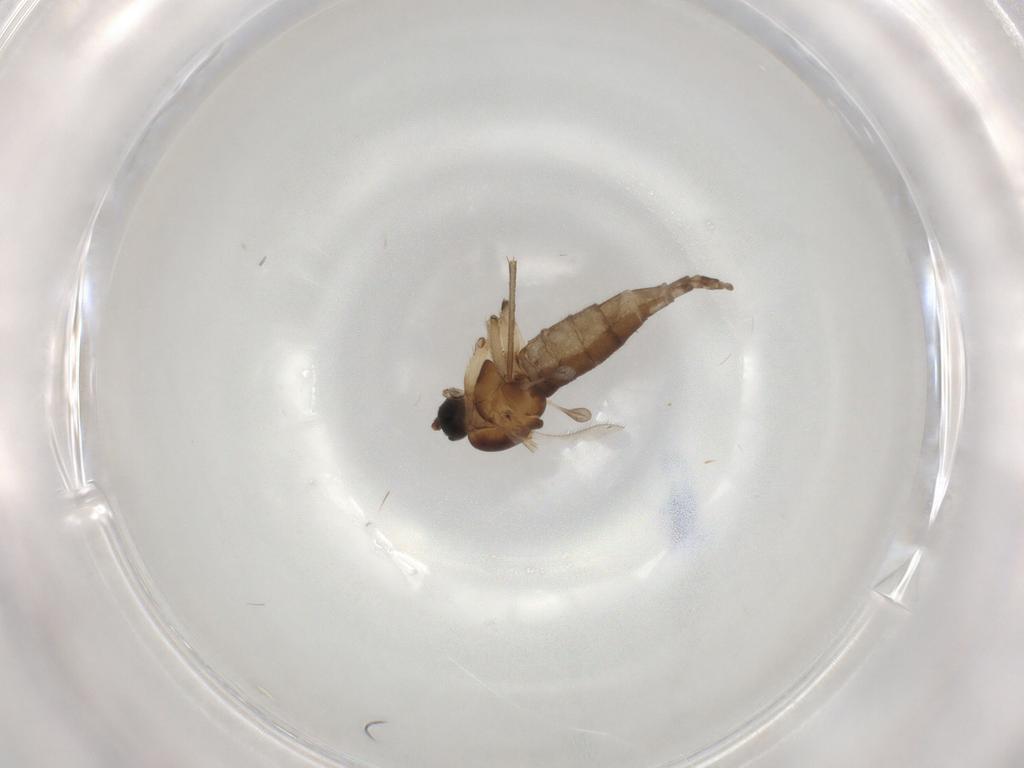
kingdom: Animalia
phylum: Arthropoda
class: Insecta
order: Diptera
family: Sciaridae
